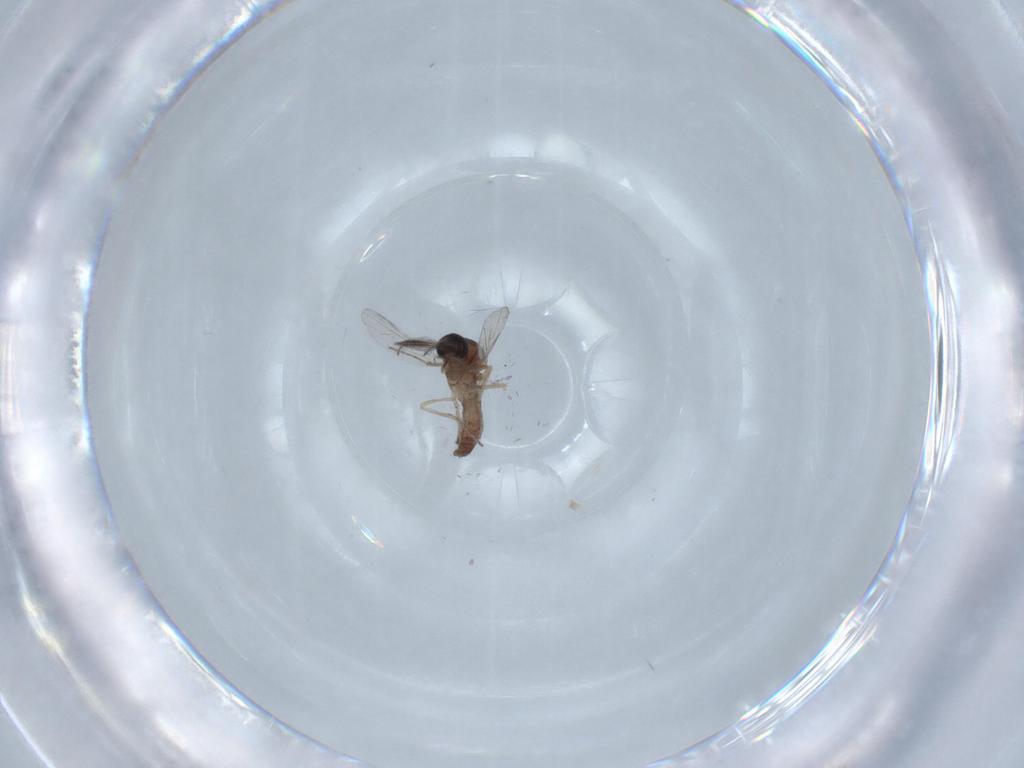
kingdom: Animalia
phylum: Arthropoda
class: Insecta
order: Diptera
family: Ceratopogonidae
